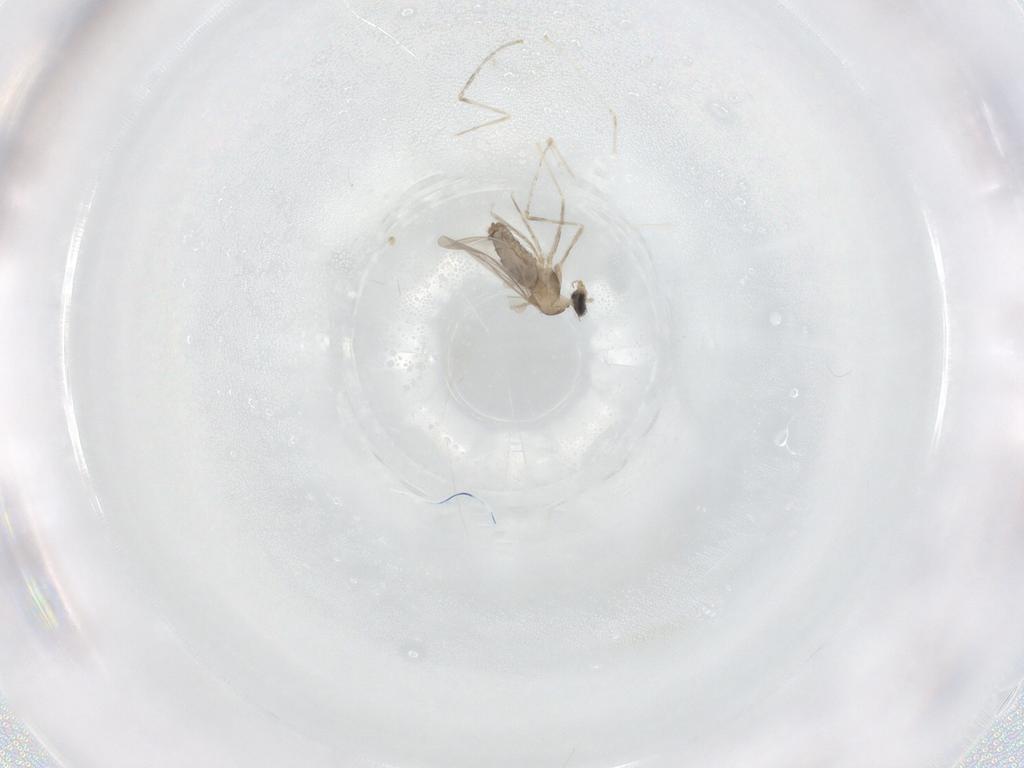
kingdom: Animalia
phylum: Arthropoda
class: Insecta
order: Diptera
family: Cecidomyiidae
